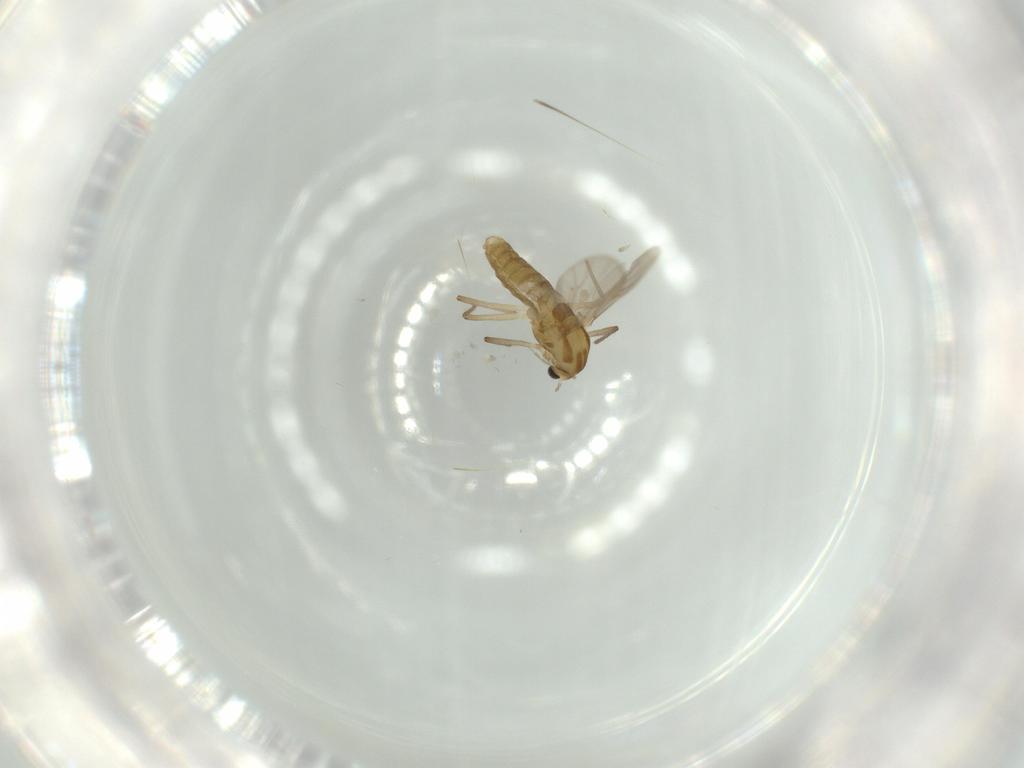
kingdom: Animalia
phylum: Arthropoda
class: Insecta
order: Diptera
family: Chironomidae
